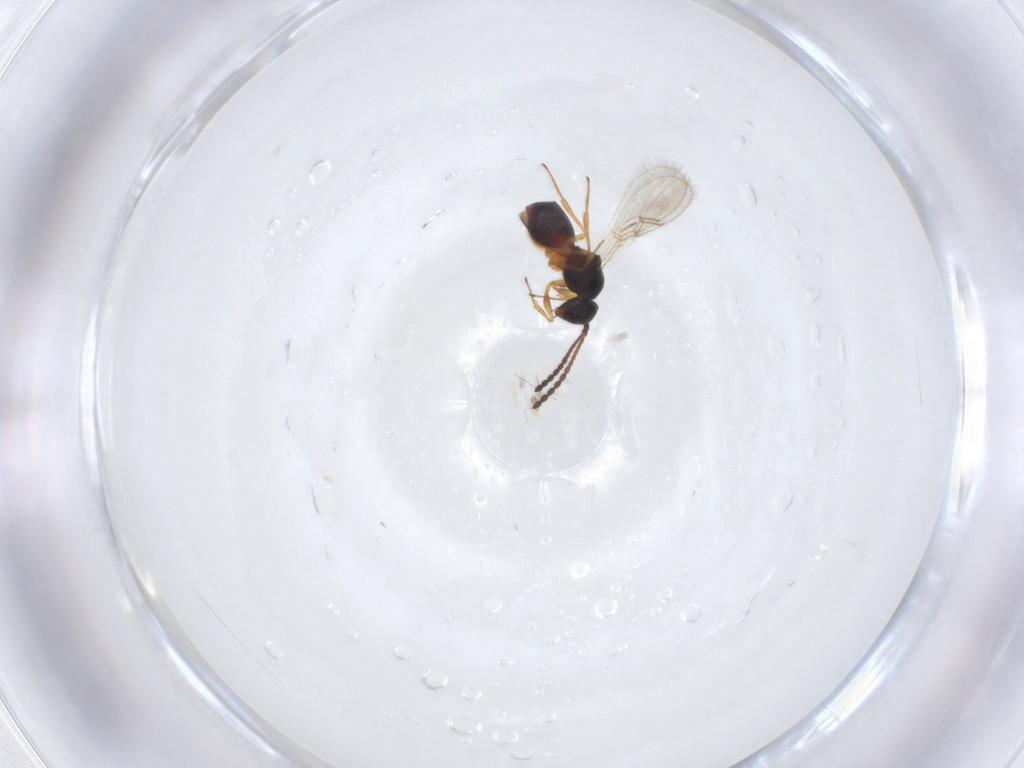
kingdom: Animalia
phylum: Arthropoda
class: Insecta
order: Hymenoptera
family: Figitidae
